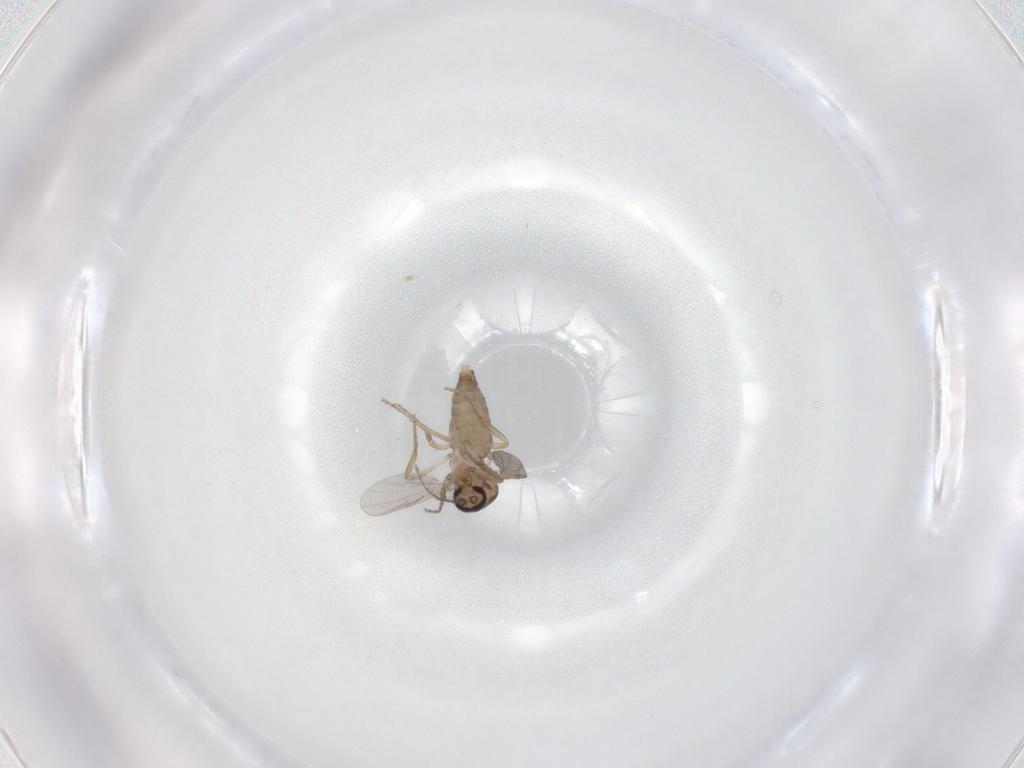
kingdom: Animalia
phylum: Arthropoda
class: Insecta
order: Diptera
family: Ceratopogonidae
